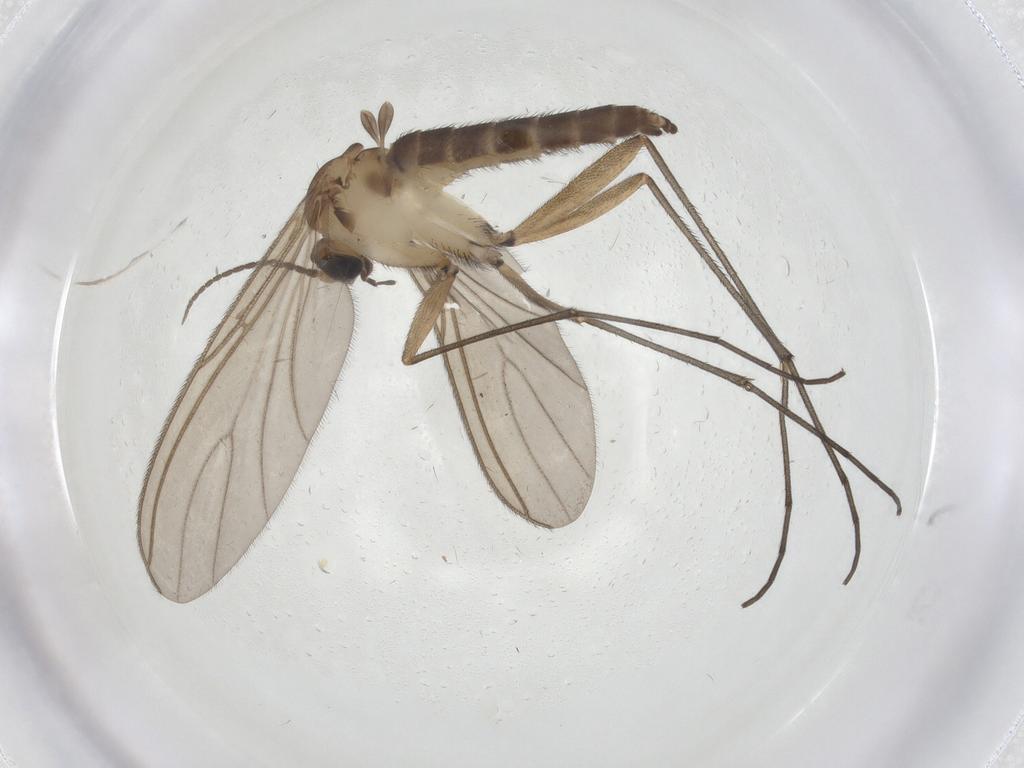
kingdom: Animalia
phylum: Arthropoda
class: Insecta
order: Diptera
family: Sciaridae
